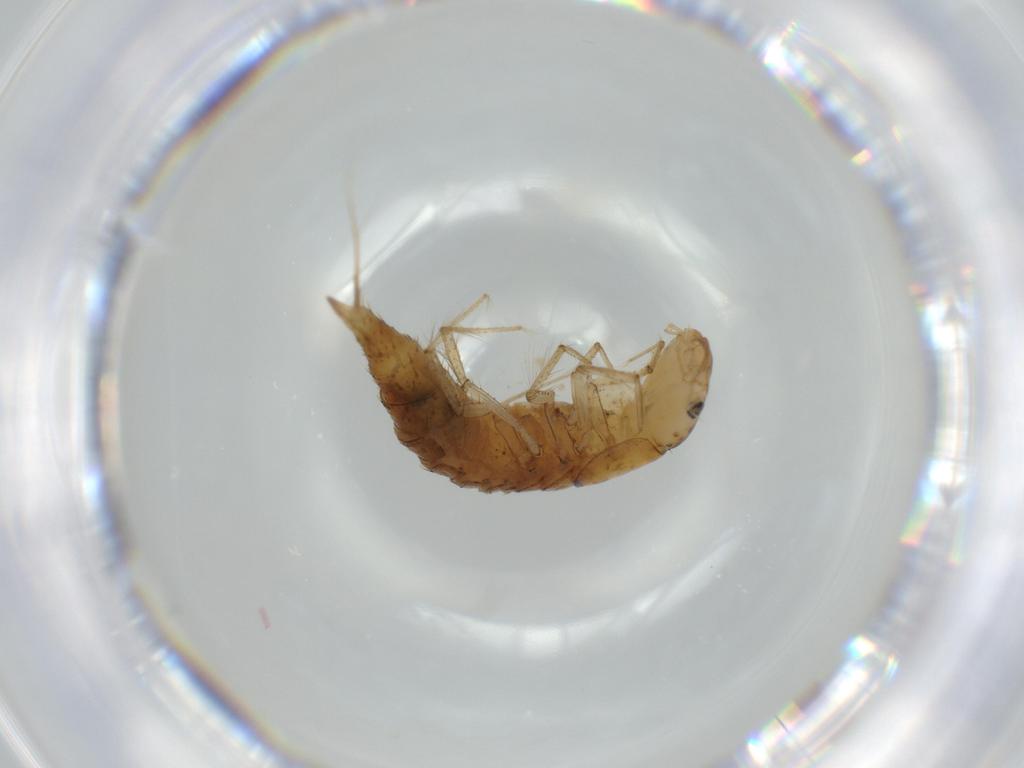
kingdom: Animalia
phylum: Arthropoda
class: Insecta
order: Coleoptera
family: Dytiscidae
